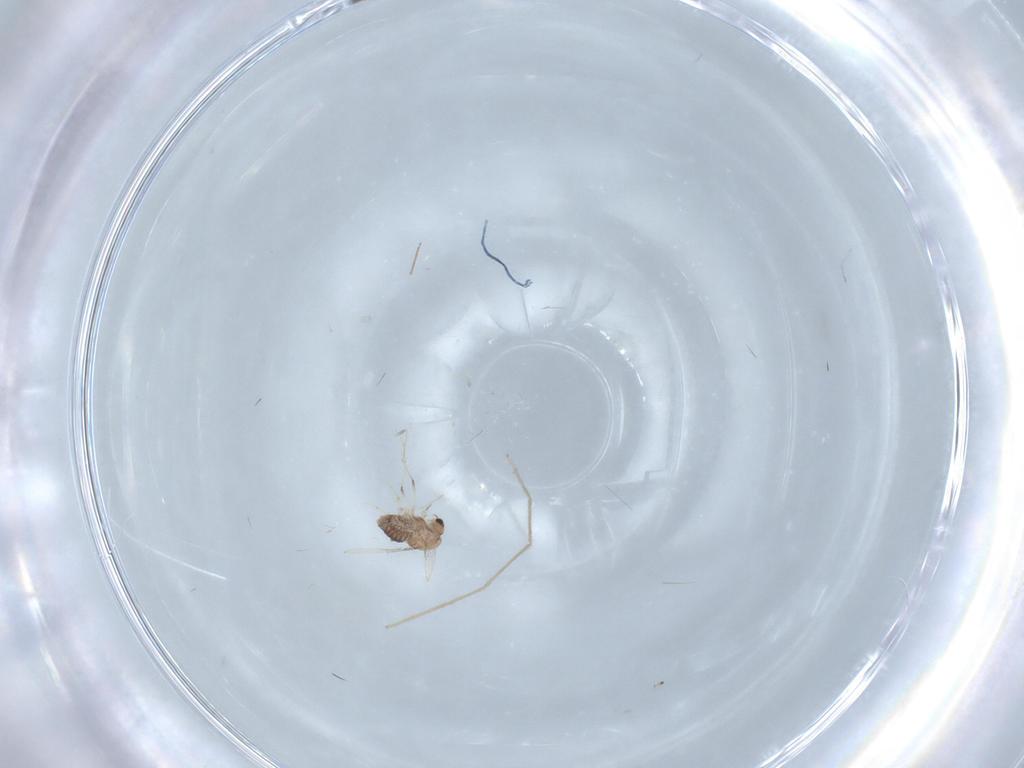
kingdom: Animalia
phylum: Arthropoda
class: Insecta
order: Diptera
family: Chironomidae
